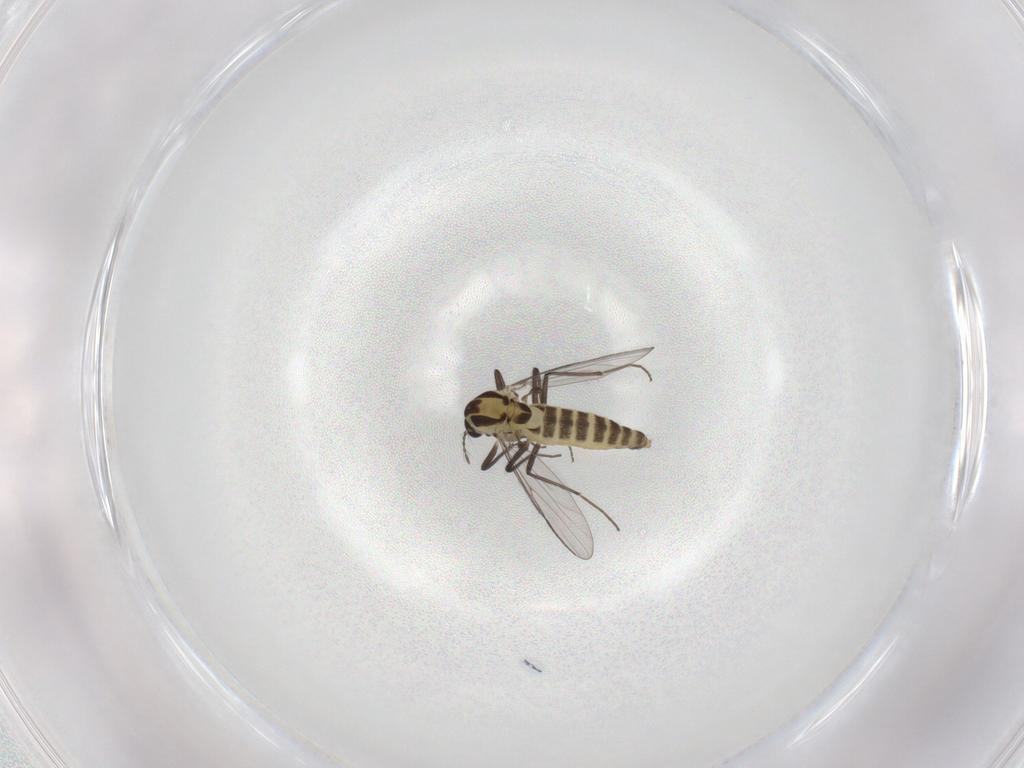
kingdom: Animalia
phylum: Arthropoda
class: Insecta
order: Diptera
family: Chironomidae
